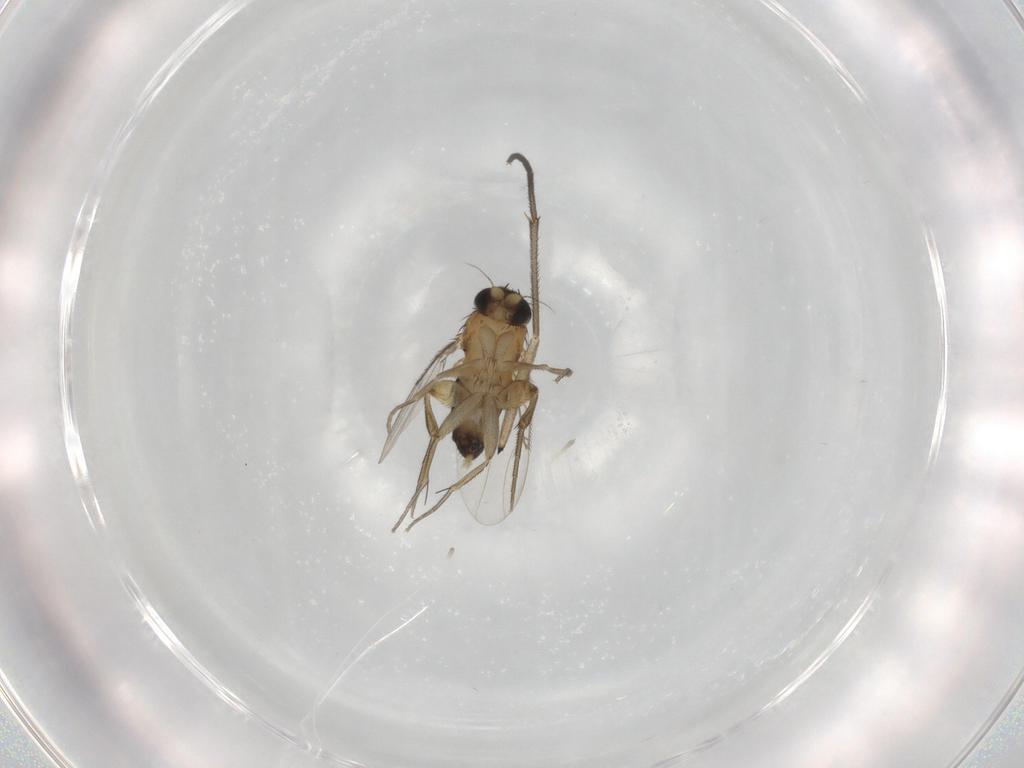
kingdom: Animalia
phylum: Arthropoda
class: Insecta
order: Diptera
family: Phoridae
